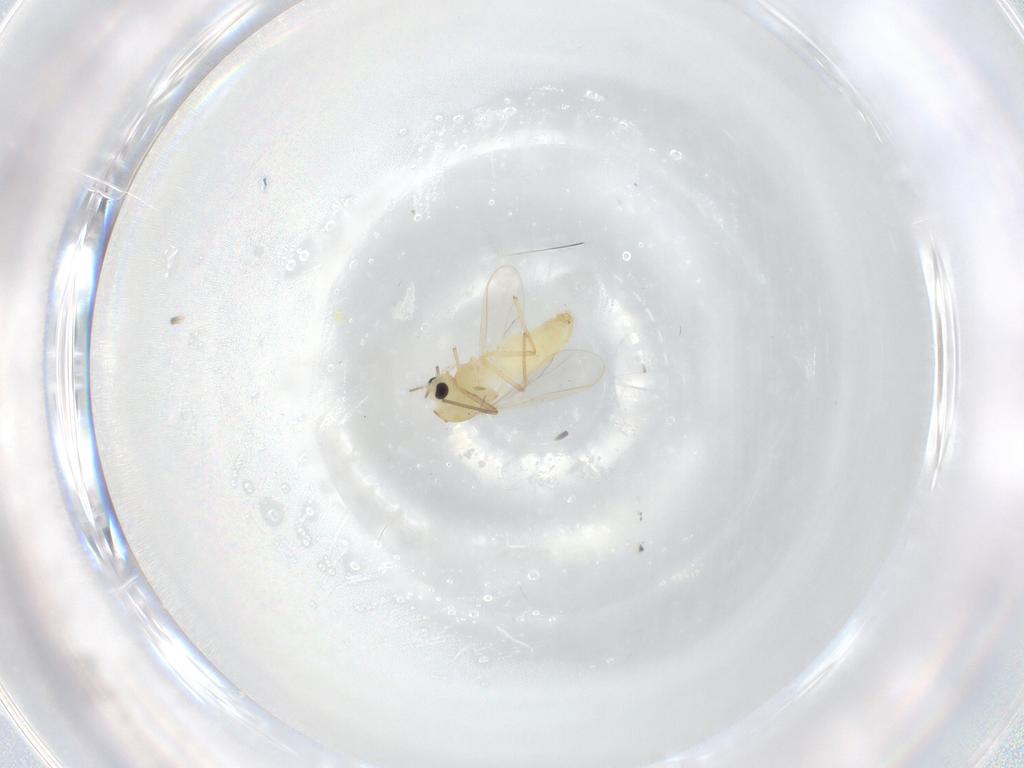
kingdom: Animalia
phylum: Arthropoda
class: Insecta
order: Diptera
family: Chironomidae
